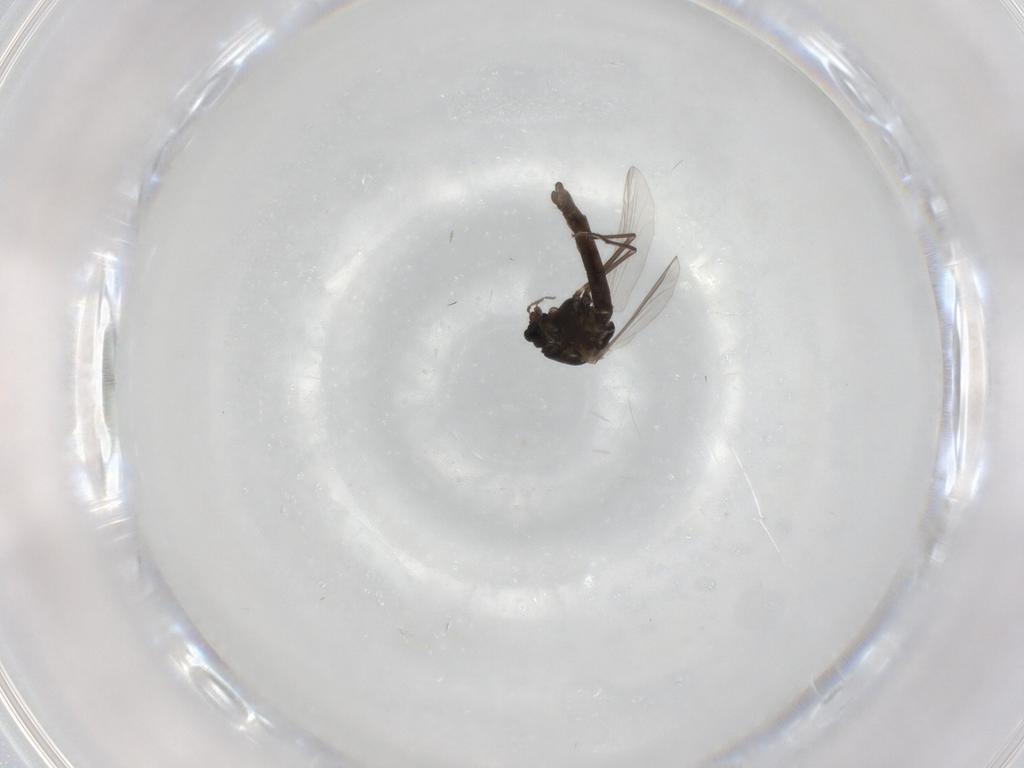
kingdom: Animalia
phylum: Arthropoda
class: Insecta
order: Diptera
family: Chironomidae
